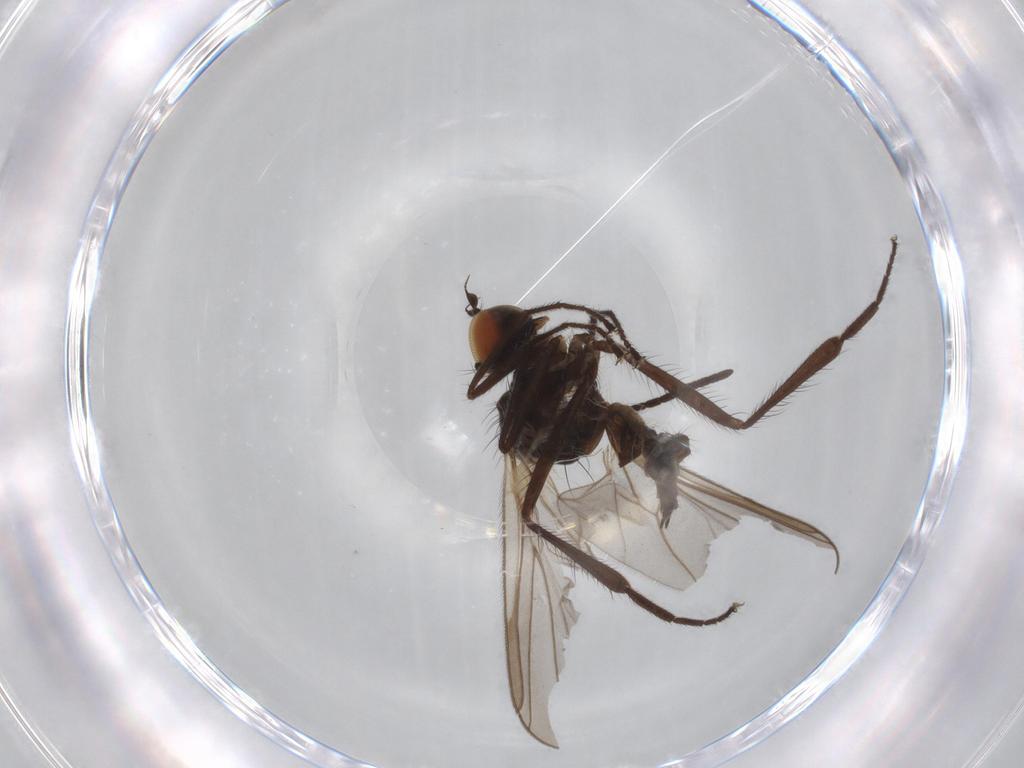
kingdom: Animalia
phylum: Arthropoda
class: Insecta
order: Diptera
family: Hybotidae
